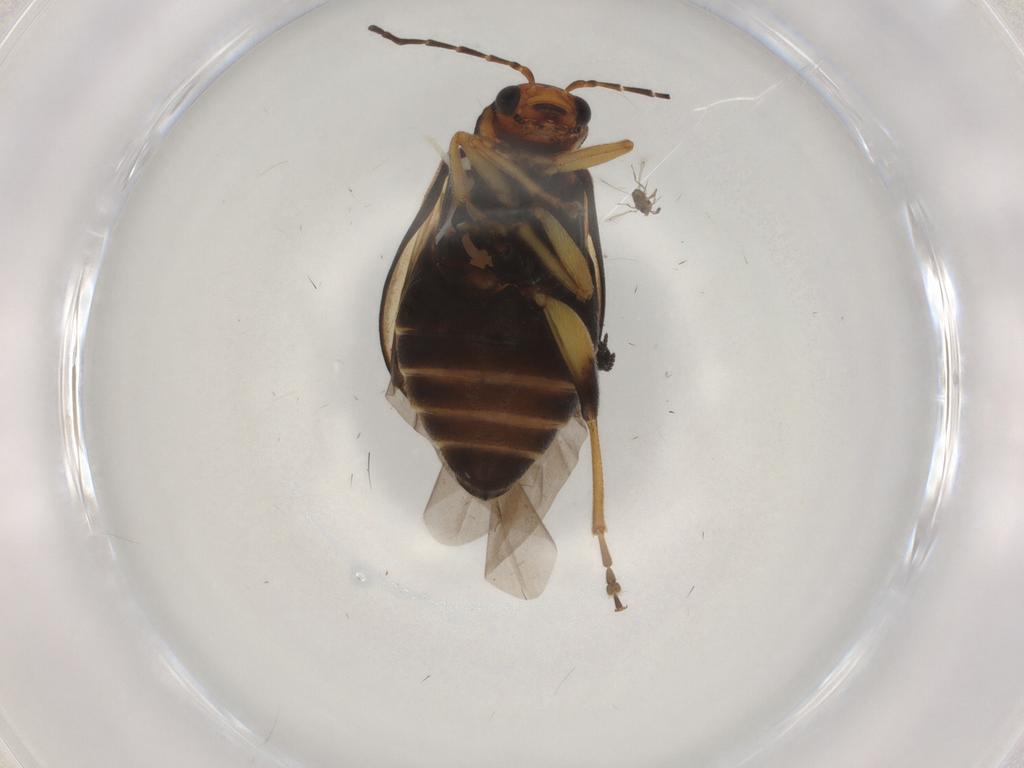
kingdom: Animalia
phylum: Arthropoda
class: Insecta
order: Coleoptera
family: Chrysomelidae
